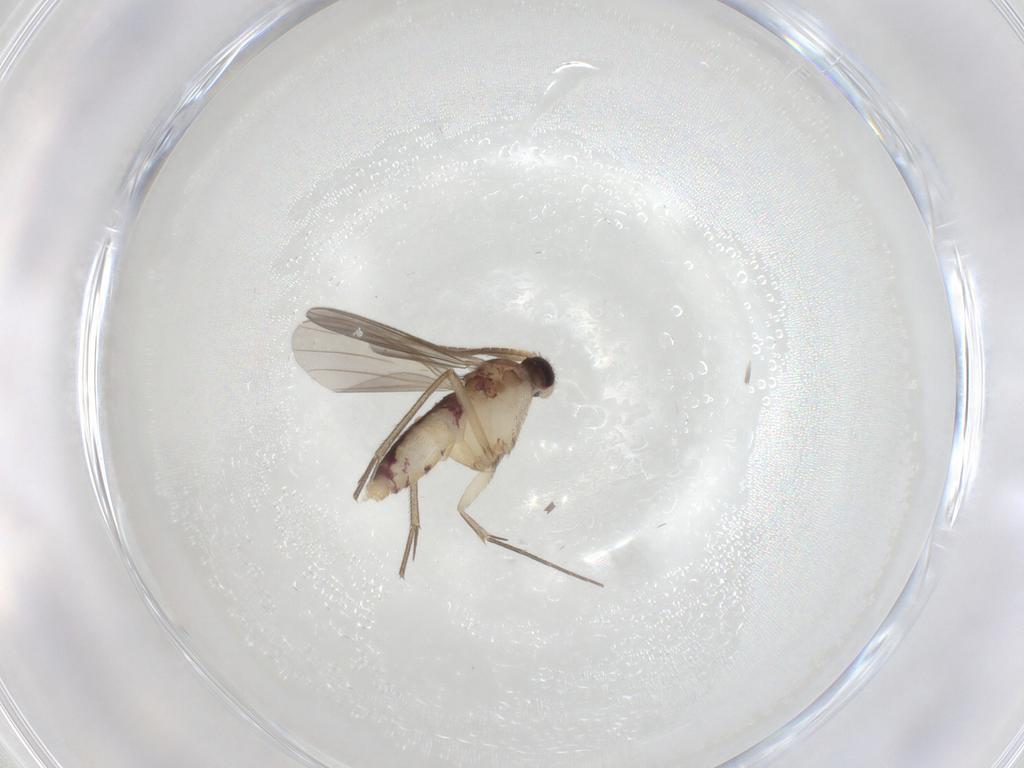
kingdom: Animalia
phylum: Arthropoda
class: Insecta
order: Diptera
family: Mycetophilidae
